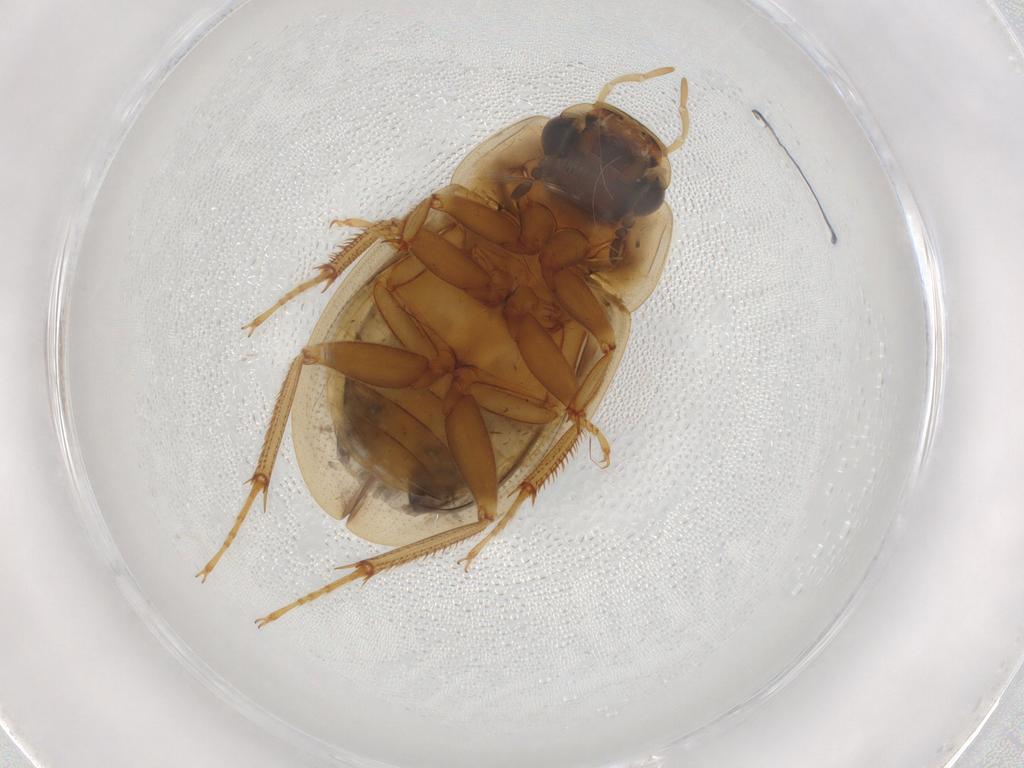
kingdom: Animalia
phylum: Arthropoda
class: Insecta
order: Coleoptera
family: Hydrophilidae
